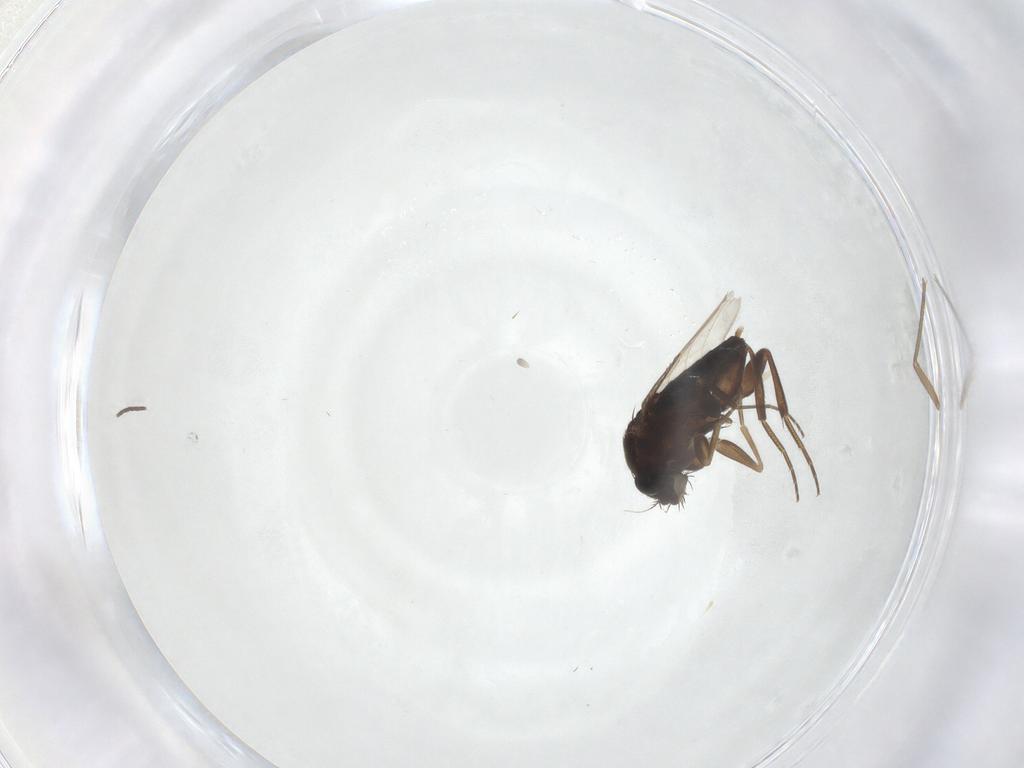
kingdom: Animalia
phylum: Arthropoda
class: Insecta
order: Diptera
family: Phoridae
